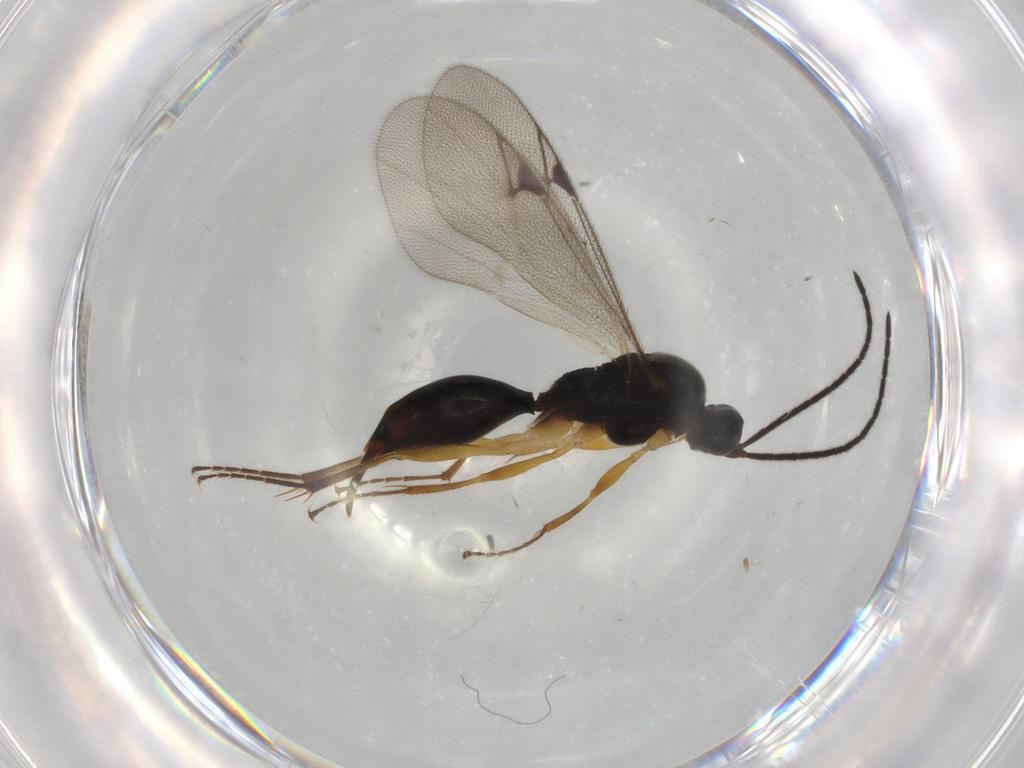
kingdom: Animalia
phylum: Arthropoda
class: Insecta
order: Hymenoptera
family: Proctotrupidae
